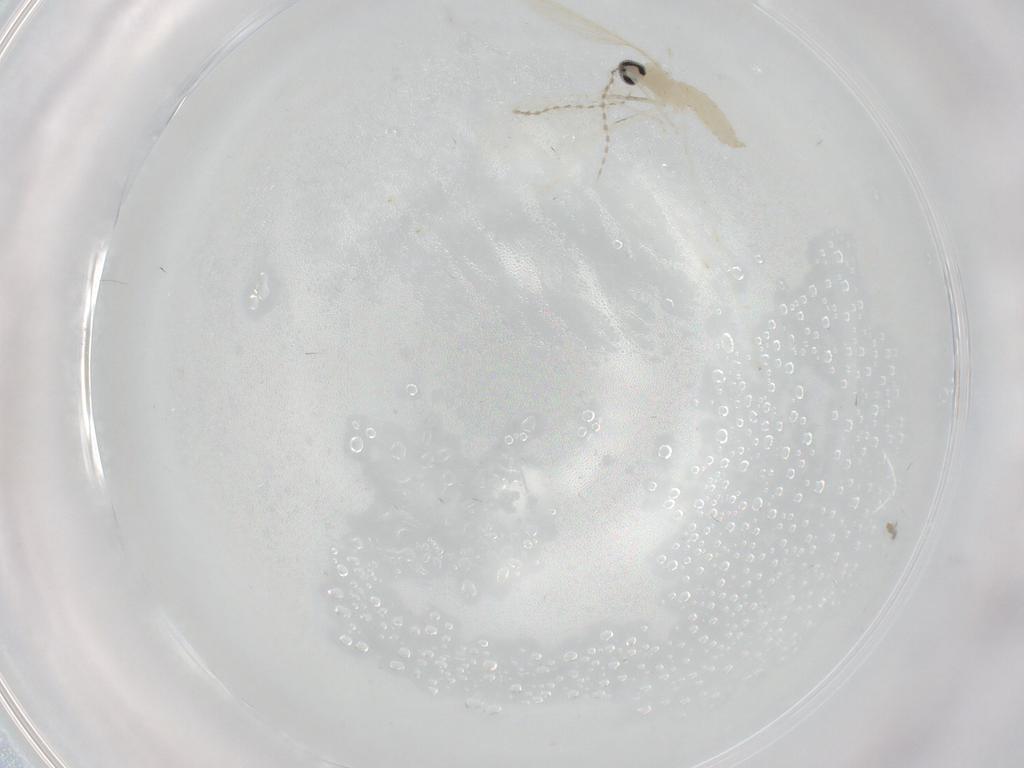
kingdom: Animalia
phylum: Arthropoda
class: Insecta
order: Diptera
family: Cecidomyiidae
